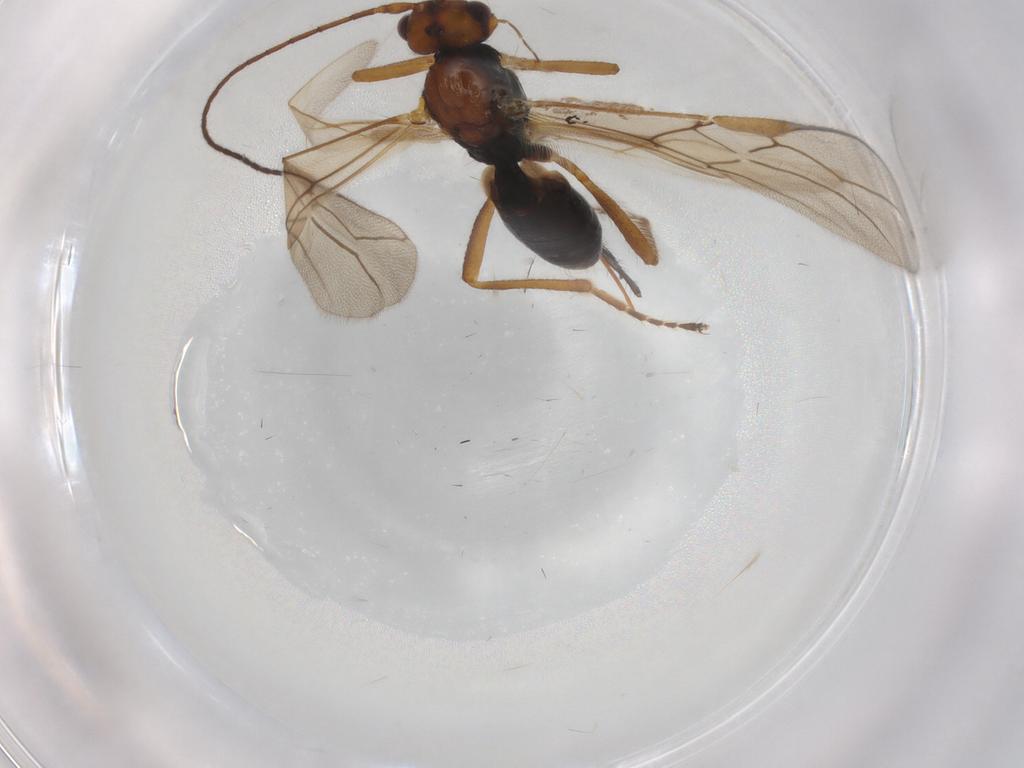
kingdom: Animalia
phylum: Arthropoda
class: Insecta
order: Hymenoptera
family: Braconidae
